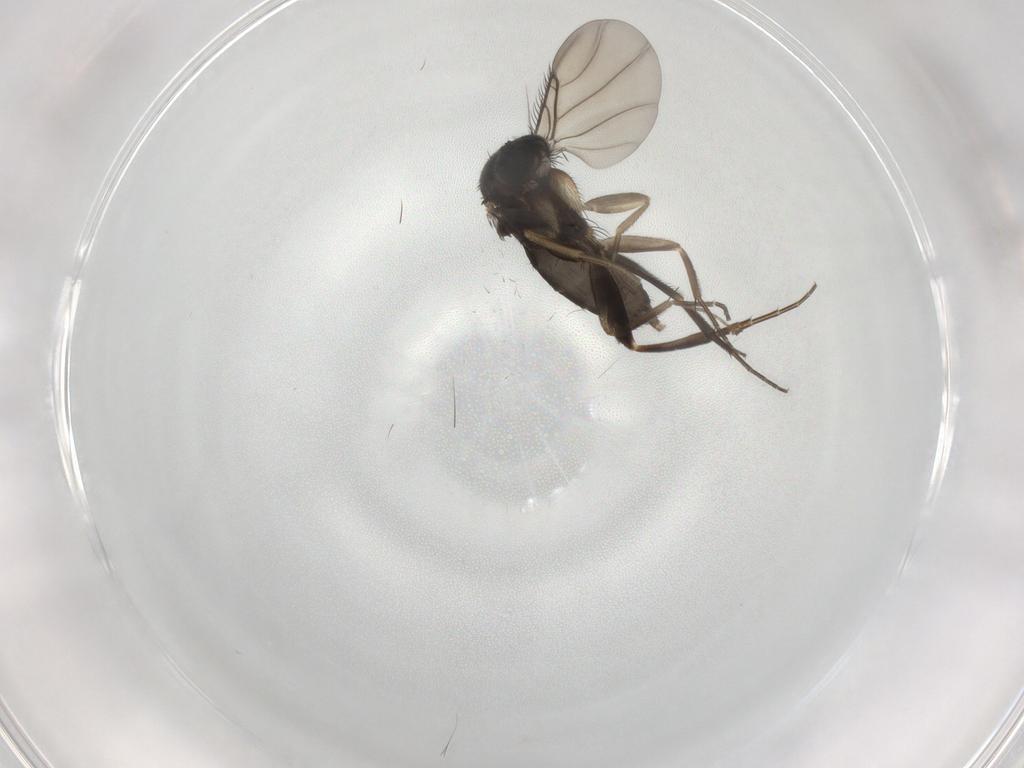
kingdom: Animalia
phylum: Arthropoda
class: Insecta
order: Diptera
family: Phoridae
